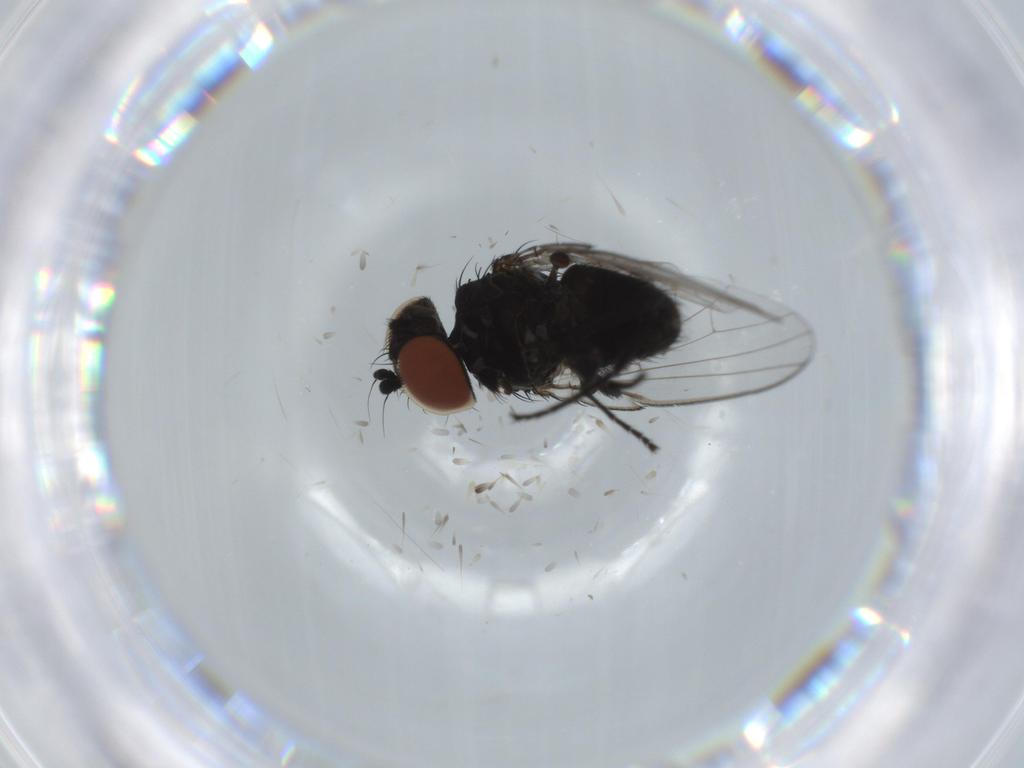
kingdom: Animalia
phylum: Arthropoda
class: Insecta
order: Diptera
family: Milichiidae
